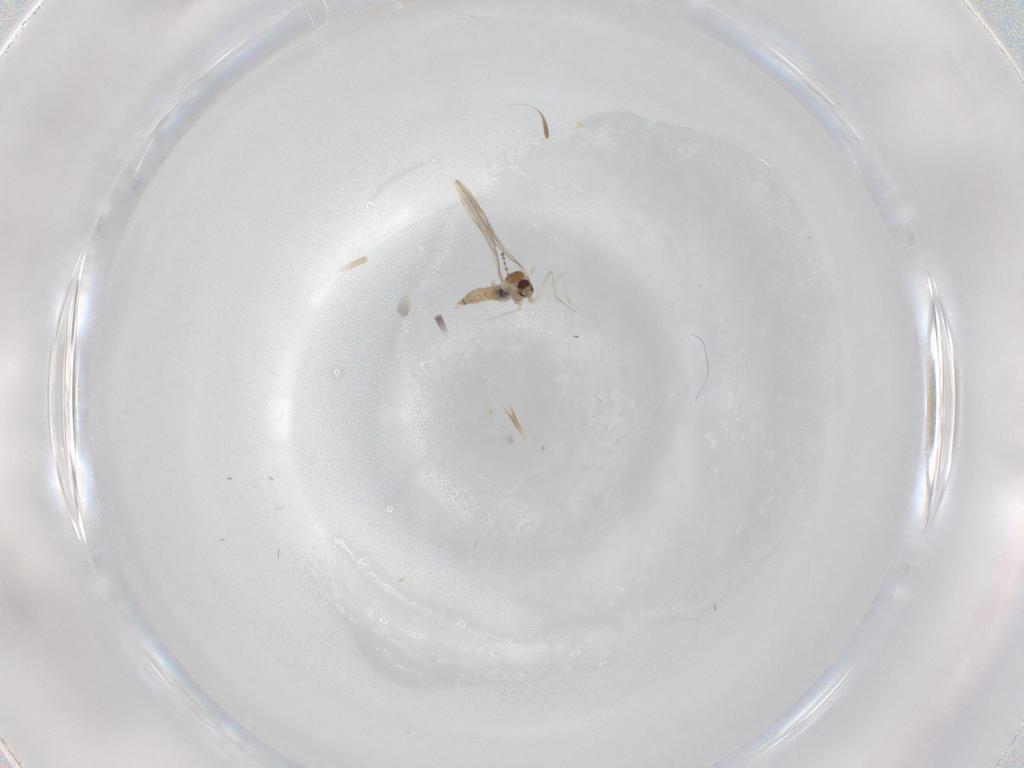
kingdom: Animalia
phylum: Arthropoda
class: Insecta
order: Diptera
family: Cecidomyiidae
